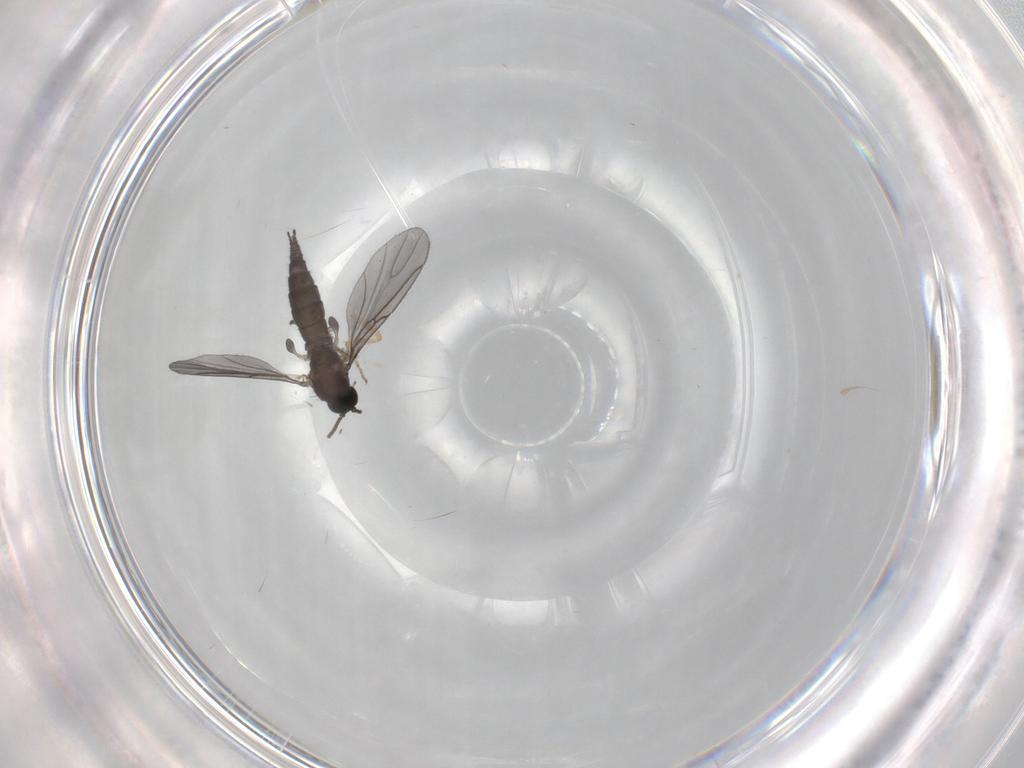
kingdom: Animalia
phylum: Arthropoda
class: Insecta
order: Diptera
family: Sciaridae
